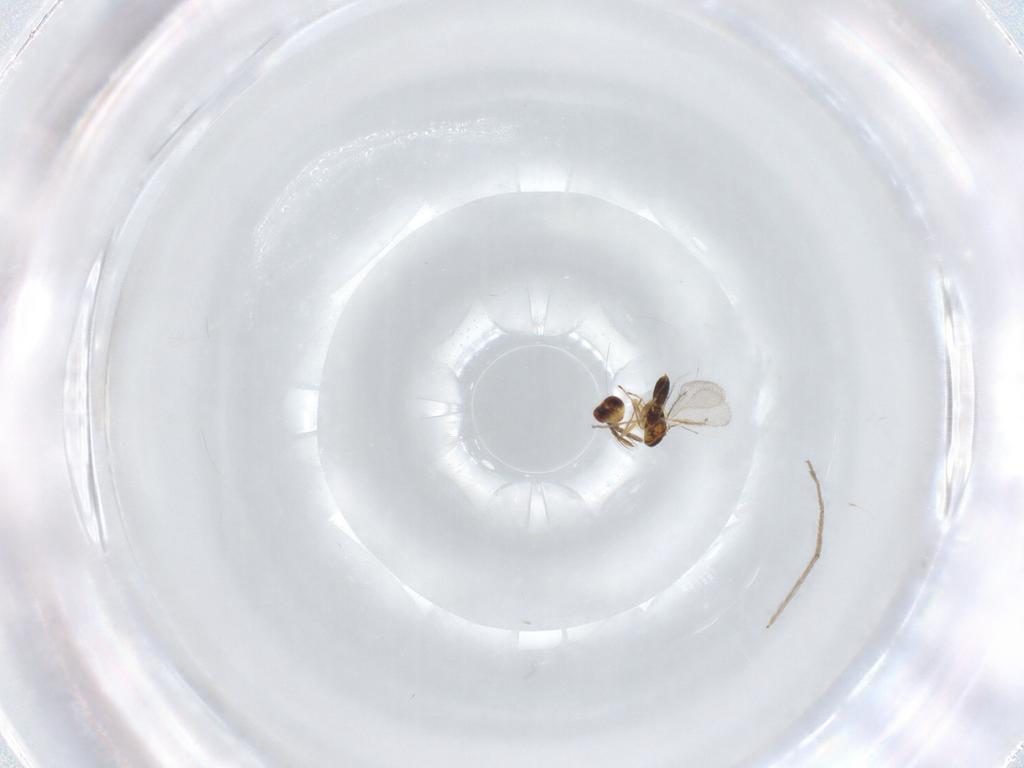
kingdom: Animalia
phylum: Arthropoda
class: Insecta
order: Hymenoptera
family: Eulophidae
